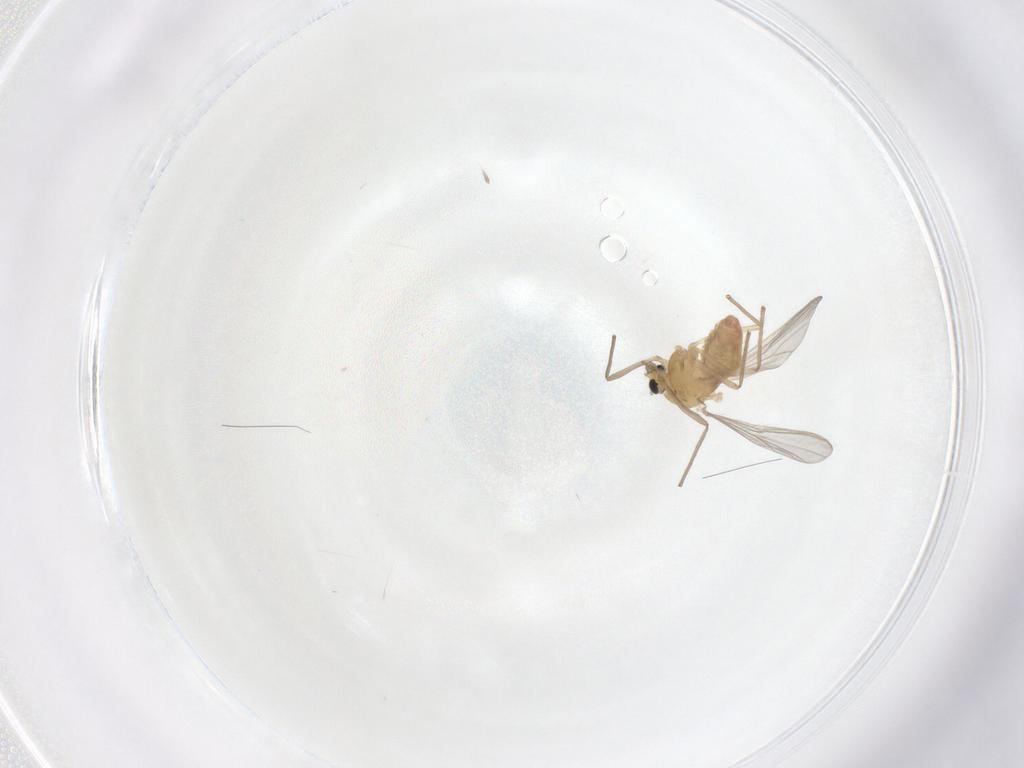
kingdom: Animalia
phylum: Arthropoda
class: Insecta
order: Diptera
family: Chironomidae
